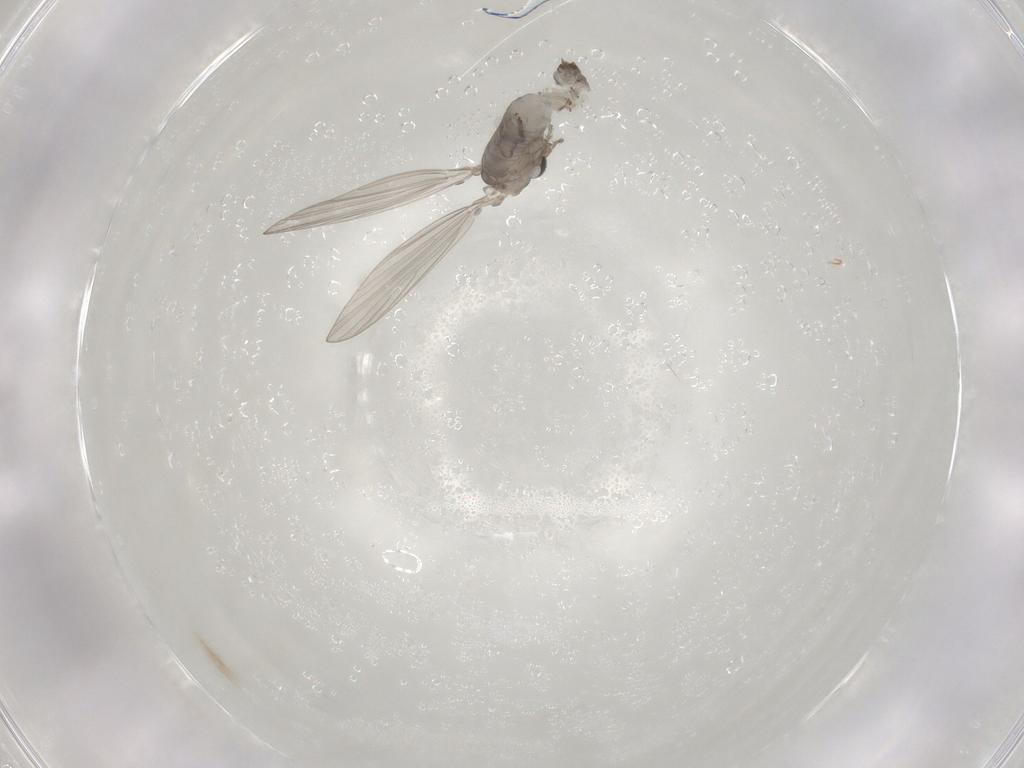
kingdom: Animalia
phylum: Arthropoda
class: Insecta
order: Diptera
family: Psychodidae
